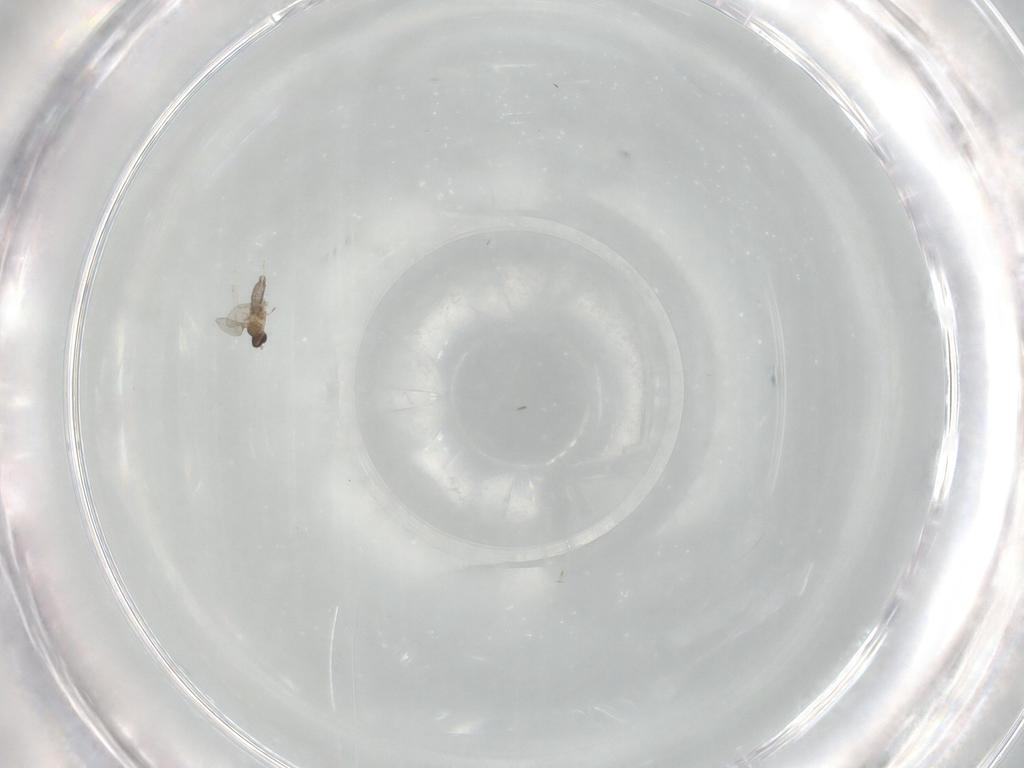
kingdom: Animalia
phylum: Arthropoda
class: Insecta
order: Diptera
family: Cecidomyiidae
